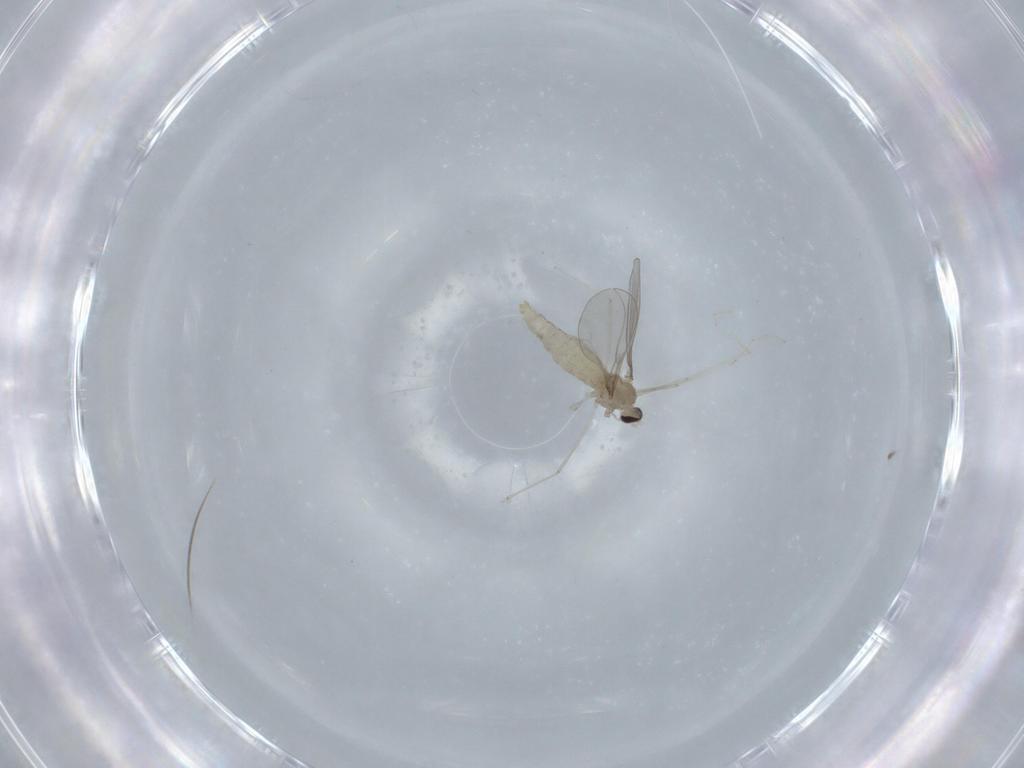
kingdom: Animalia
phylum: Arthropoda
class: Insecta
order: Diptera
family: Cecidomyiidae
